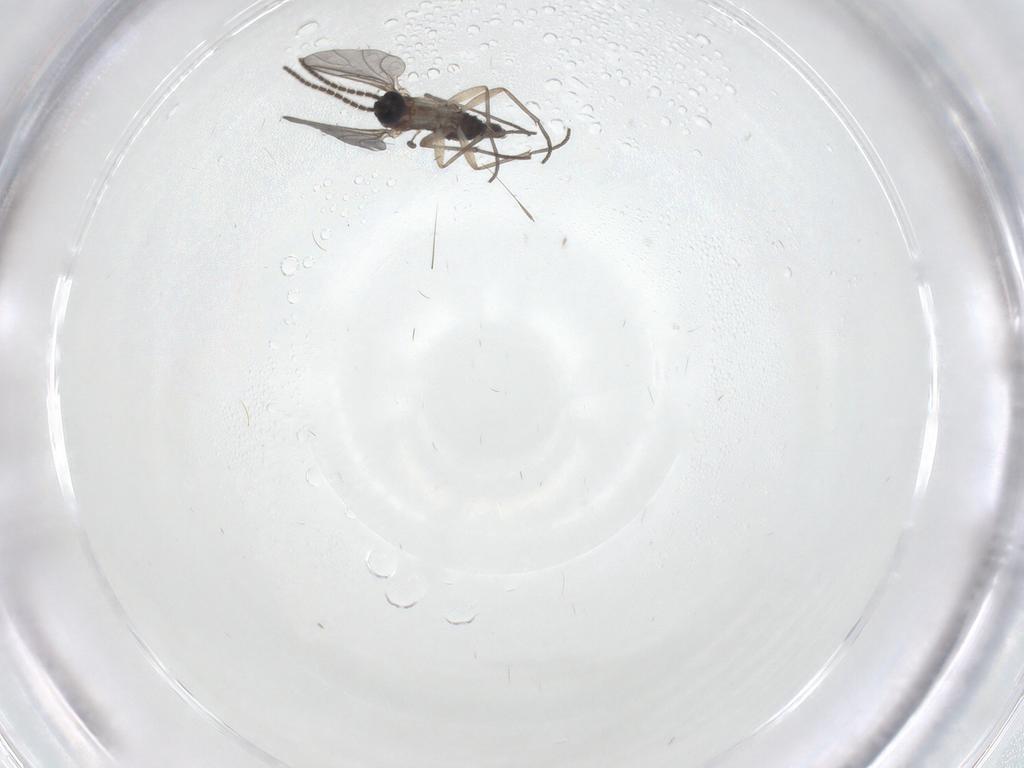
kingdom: Animalia
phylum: Arthropoda
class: Insecta
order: Diptera
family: Sciaridae
